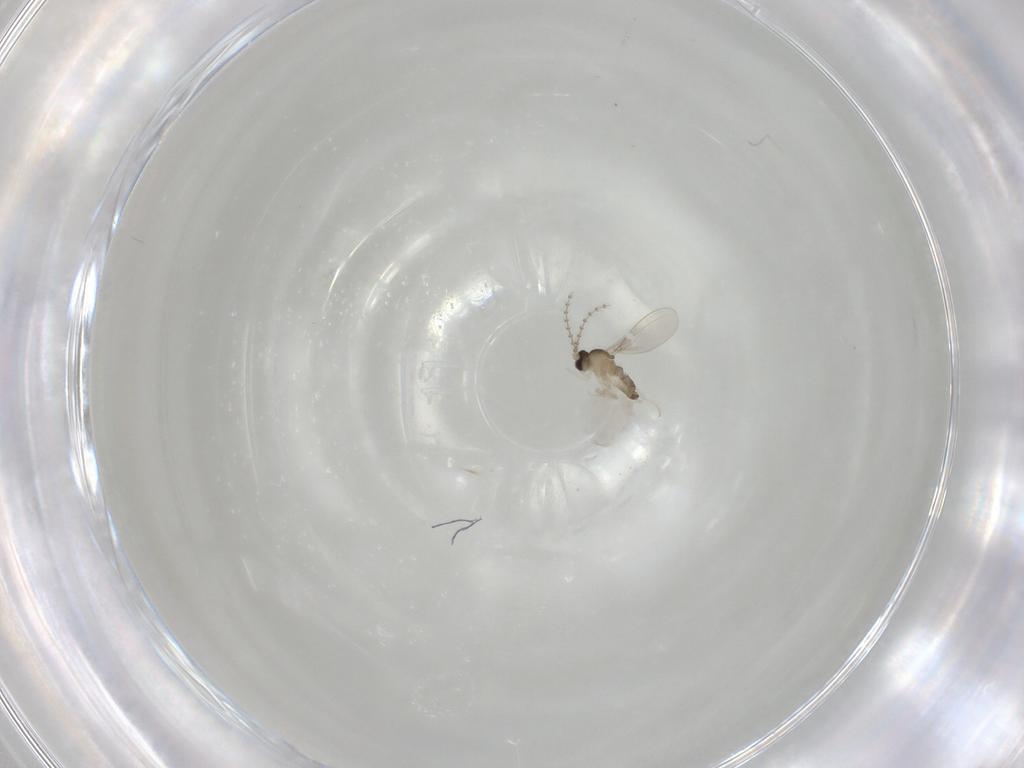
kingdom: Animalia
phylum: Arthropoda
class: Insecta
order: Diptera
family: Cecidomyiidae
